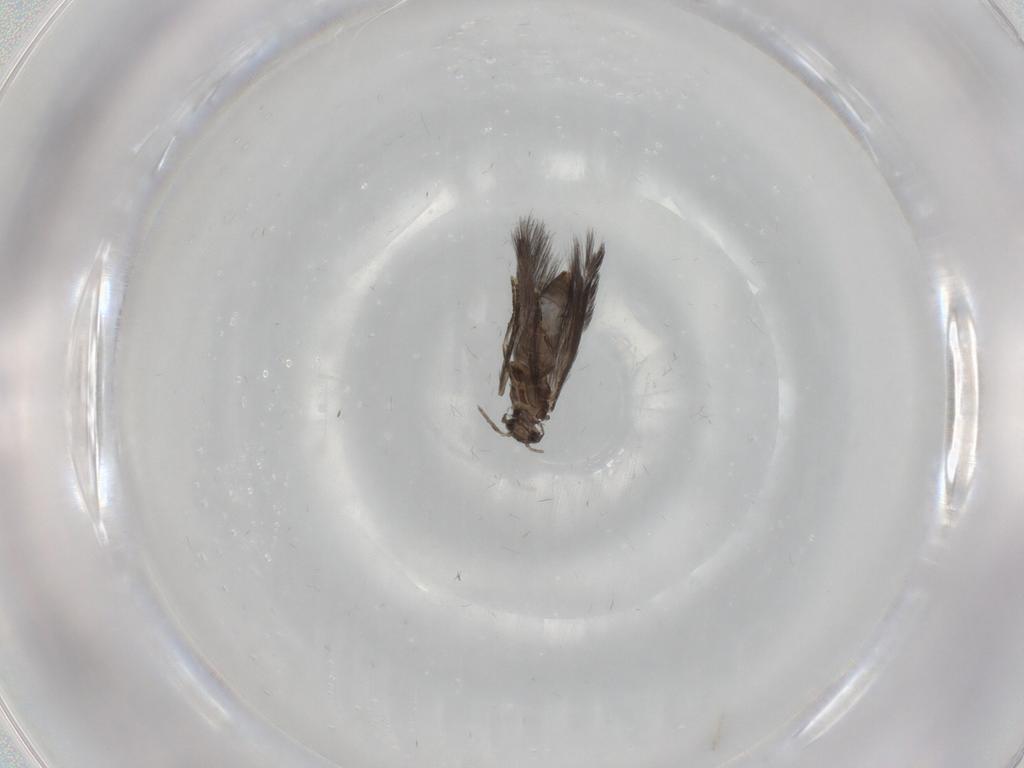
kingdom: Animalia
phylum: Arthropoda
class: Insecta
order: Trichoptera
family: Hydroptilidae
